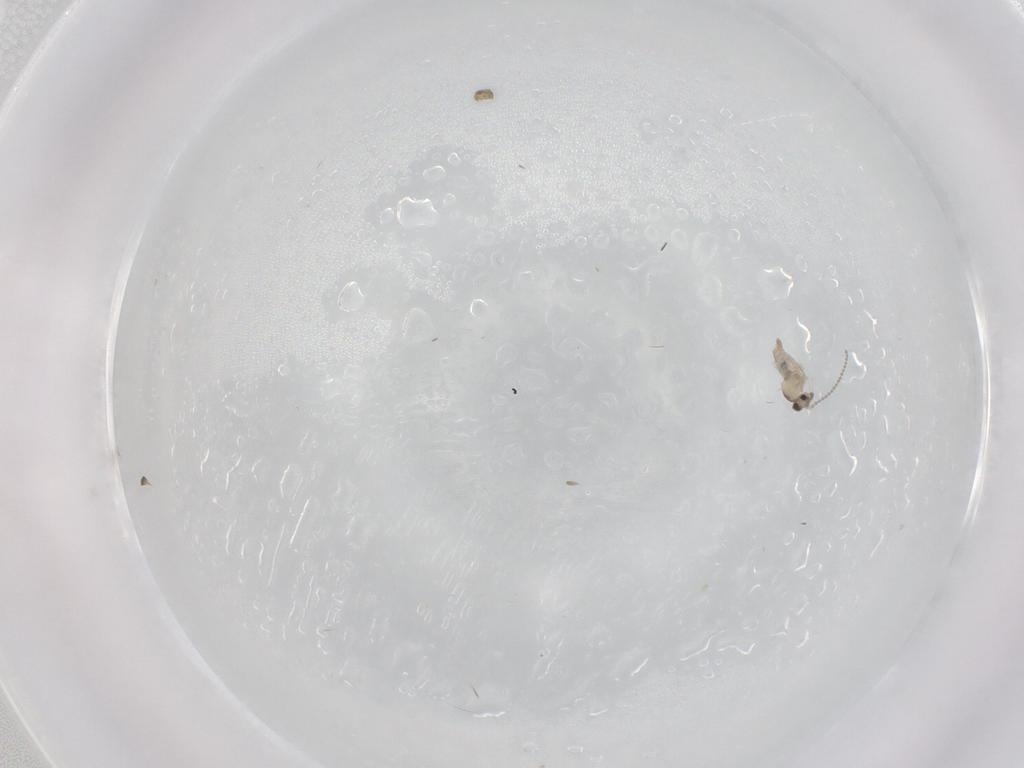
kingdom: Animalia
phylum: Arthropoda
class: Insecta
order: Diptera
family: Cecidomyiidae
